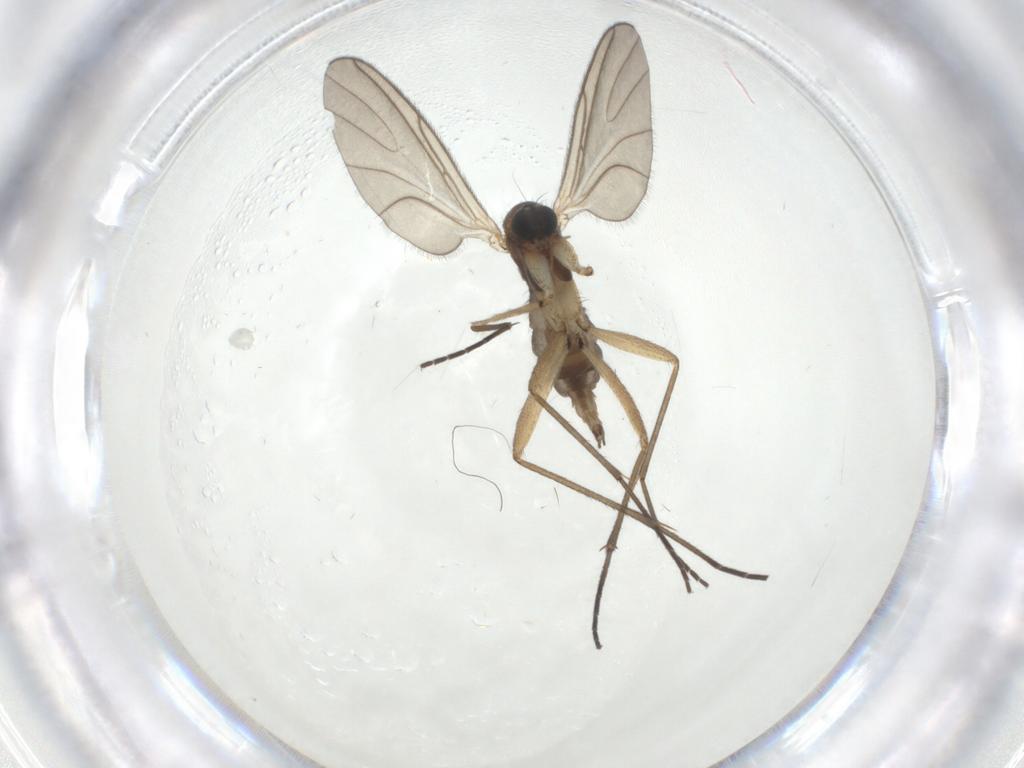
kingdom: Animalia
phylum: Arthropoda
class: Insecta
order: Diptera
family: Sciaridae
